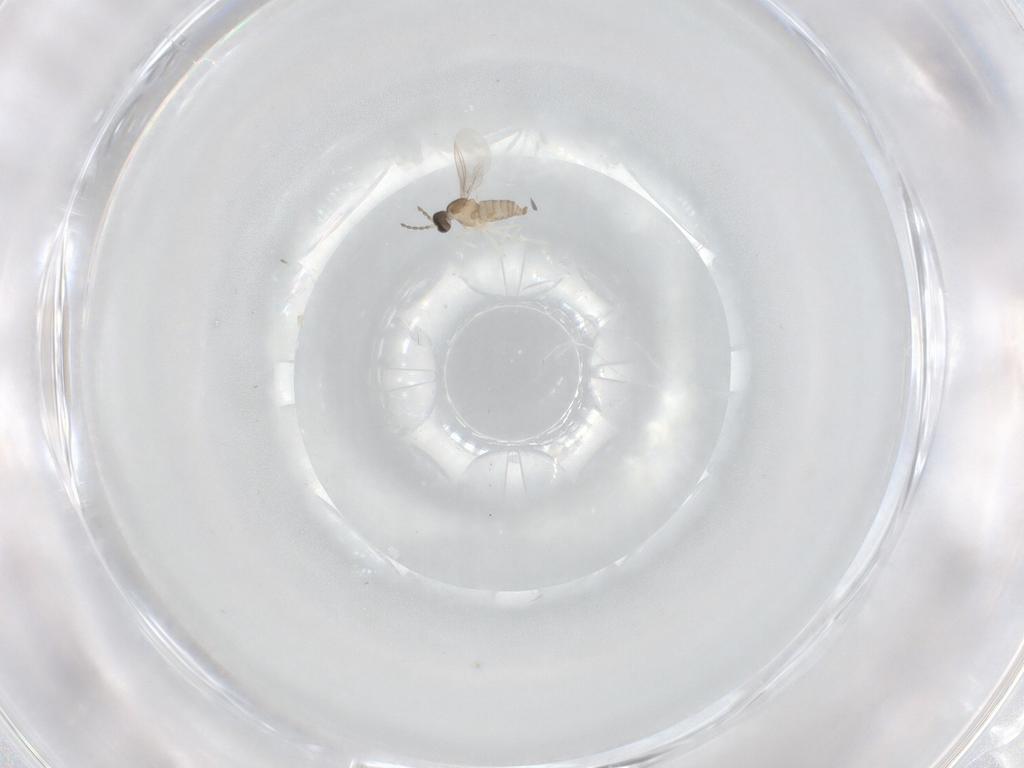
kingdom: Animalia
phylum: Arthropoda
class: Insecta
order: Diptera
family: Cecidomyiidae
